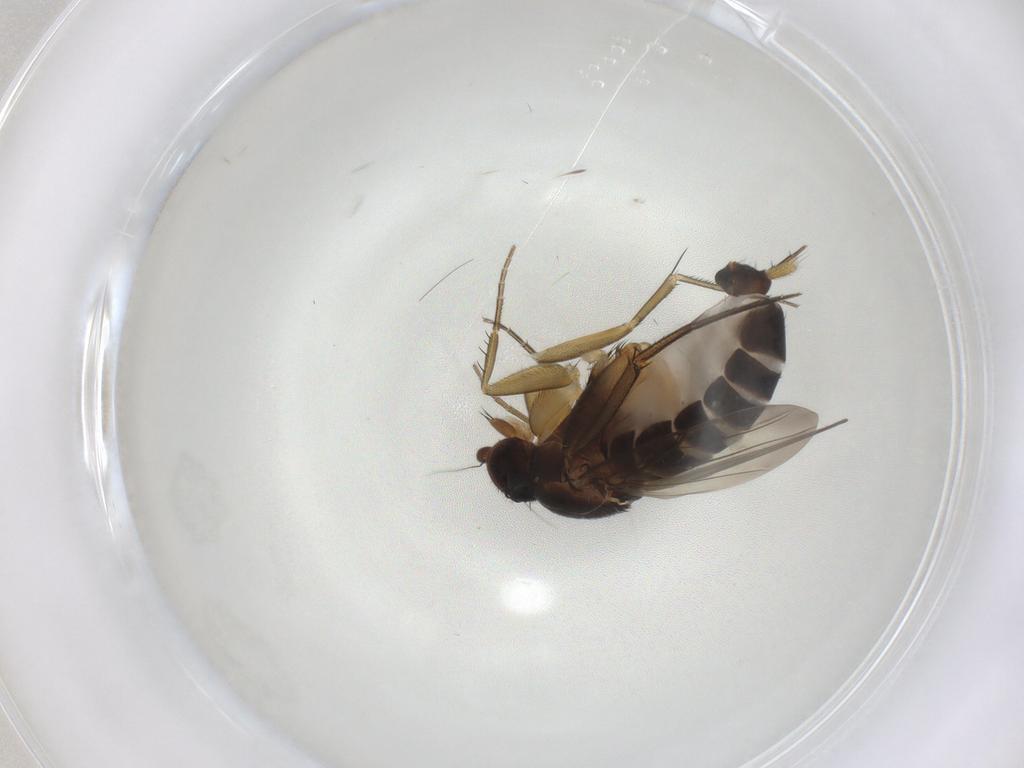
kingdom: Animalia
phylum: Arthropoda
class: Insecta
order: Diptera
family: Phoridae
